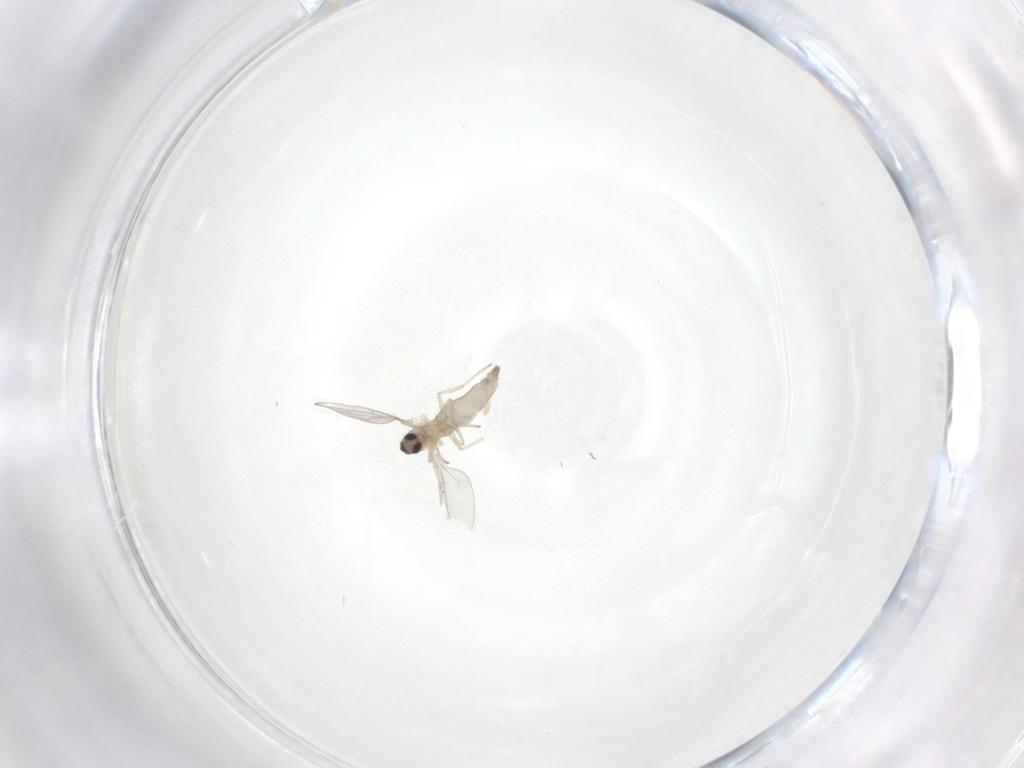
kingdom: Animalia
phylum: Arthropoda
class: Insecta
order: Diptera
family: Cecidomyiidae
